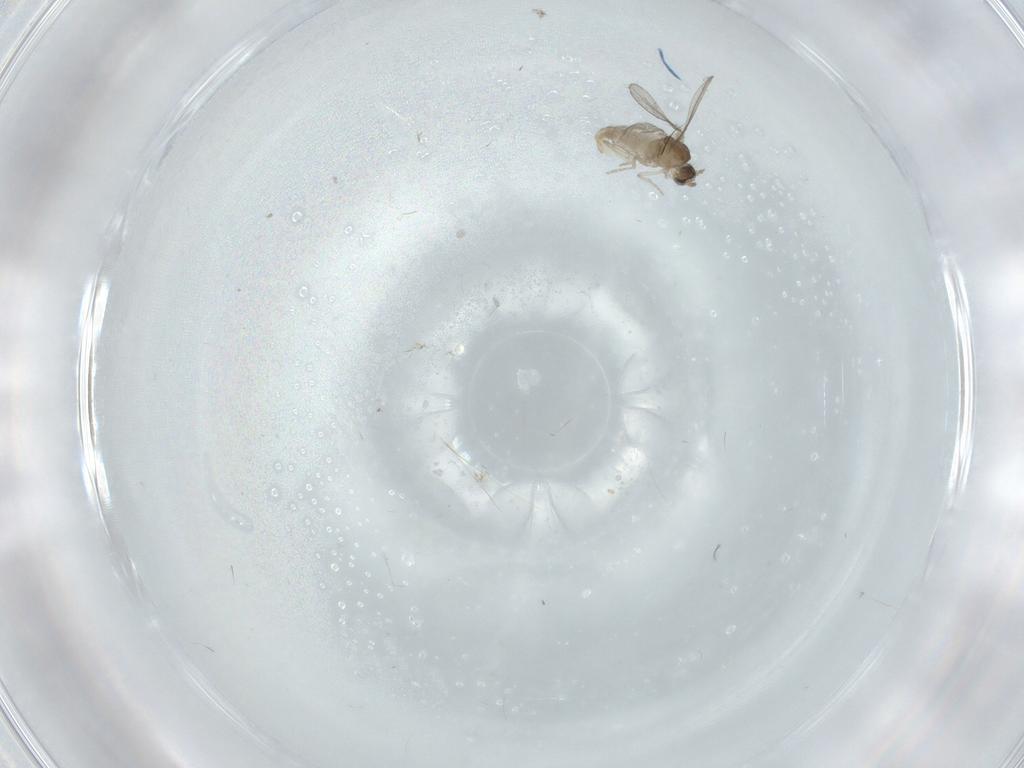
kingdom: Animalia
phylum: Arthropoda
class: Insecta
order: Diptera
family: Cecidomyiidae
